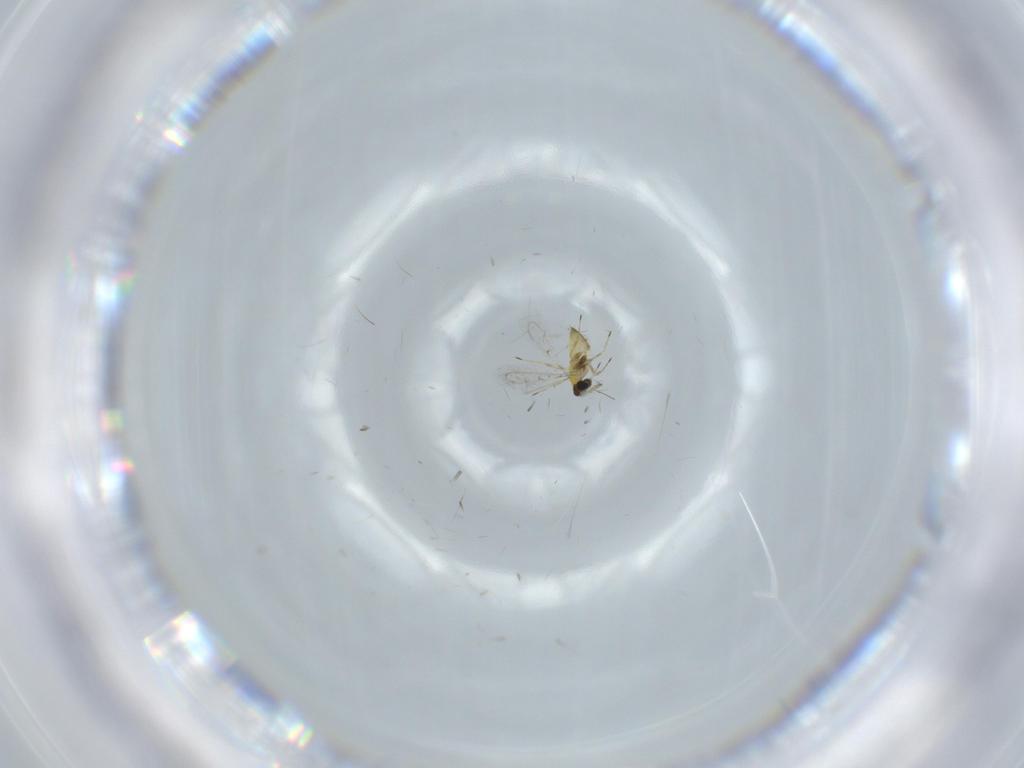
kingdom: Animalia
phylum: Arthropoda
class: Insecta
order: Hymenoptera
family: Trichogrammatidae
